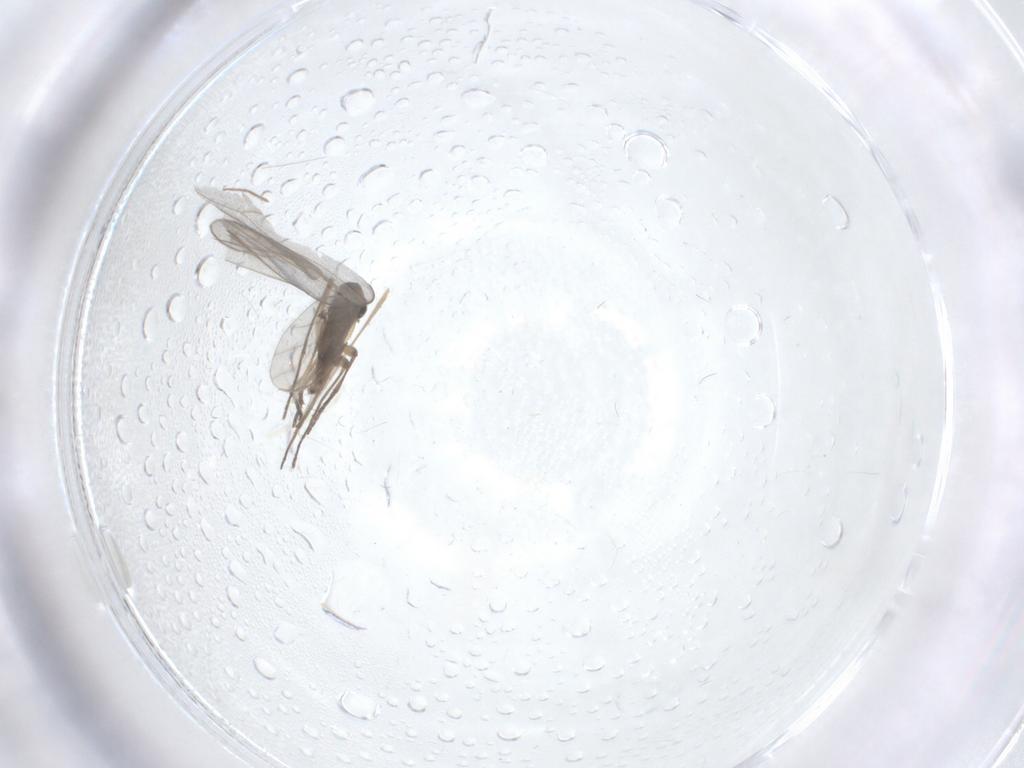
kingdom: Animalia
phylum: Arthropoda
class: Insecta
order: Diptera
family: Sciaridae
